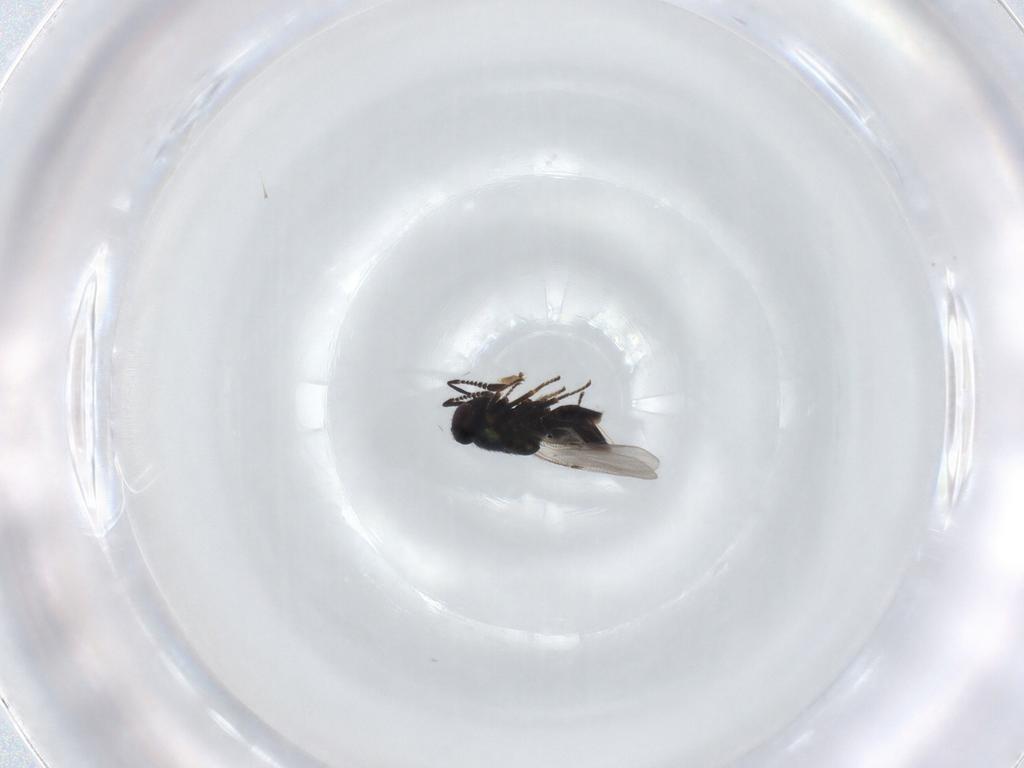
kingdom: Animalia
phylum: Arthropoda
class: Insecta
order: Hymenoptera
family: Encyrtidae
